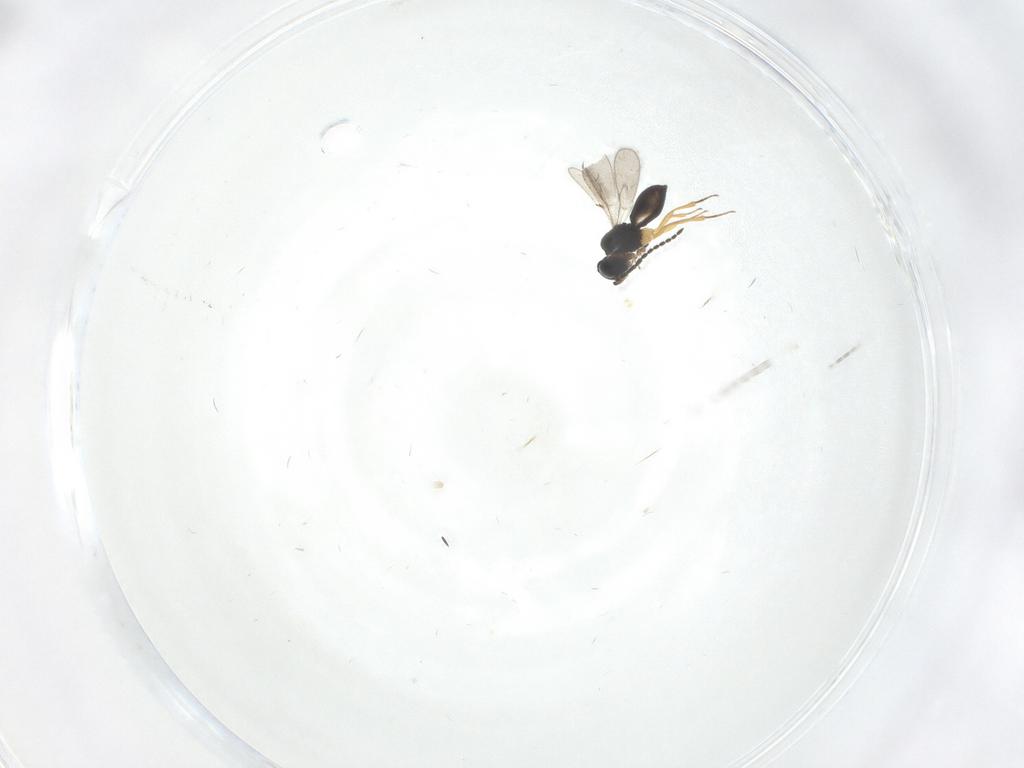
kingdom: Animalia
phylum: Arthropoda
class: Insecta
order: Hymenoptera
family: Scelionidae
